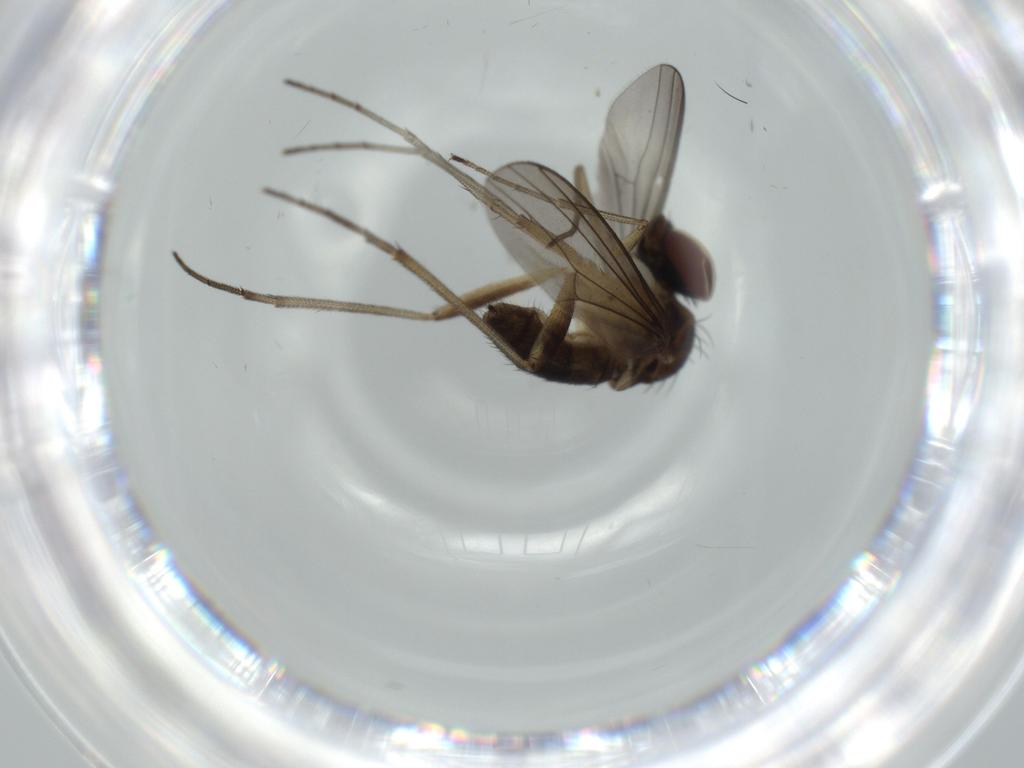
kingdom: Animalia
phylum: Arthropoda
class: Insecta
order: Diptera
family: Dolichopodidae
